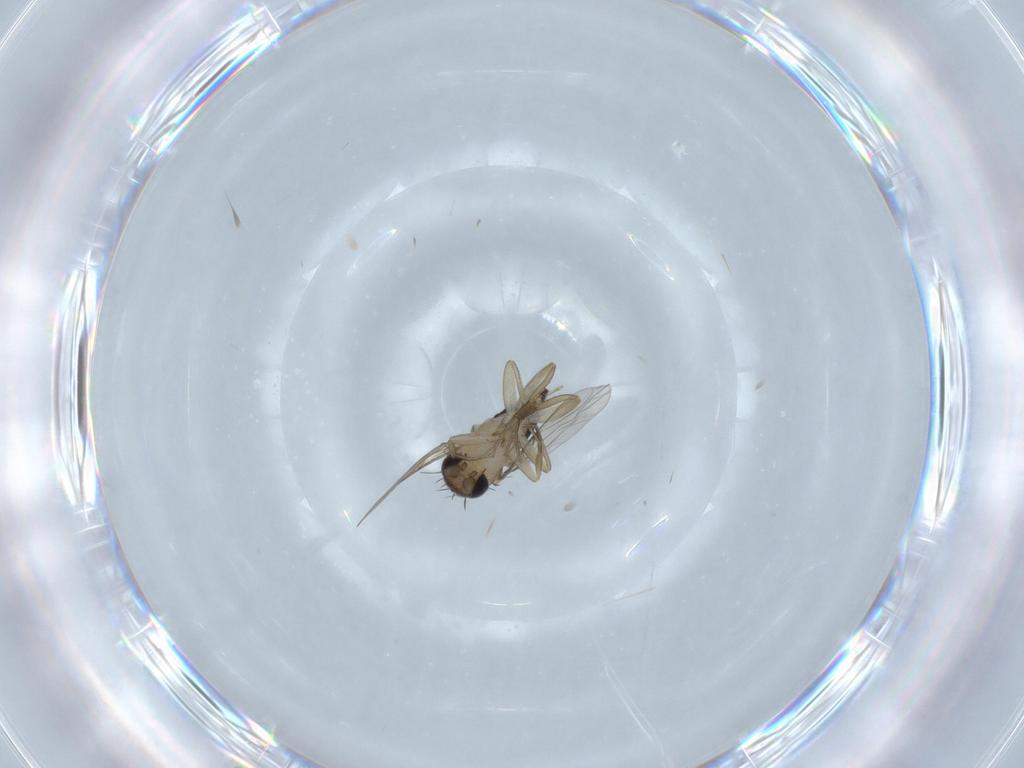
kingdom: Animalia
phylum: Arthropoda
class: Insecta
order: Diptera
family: Phoridae
